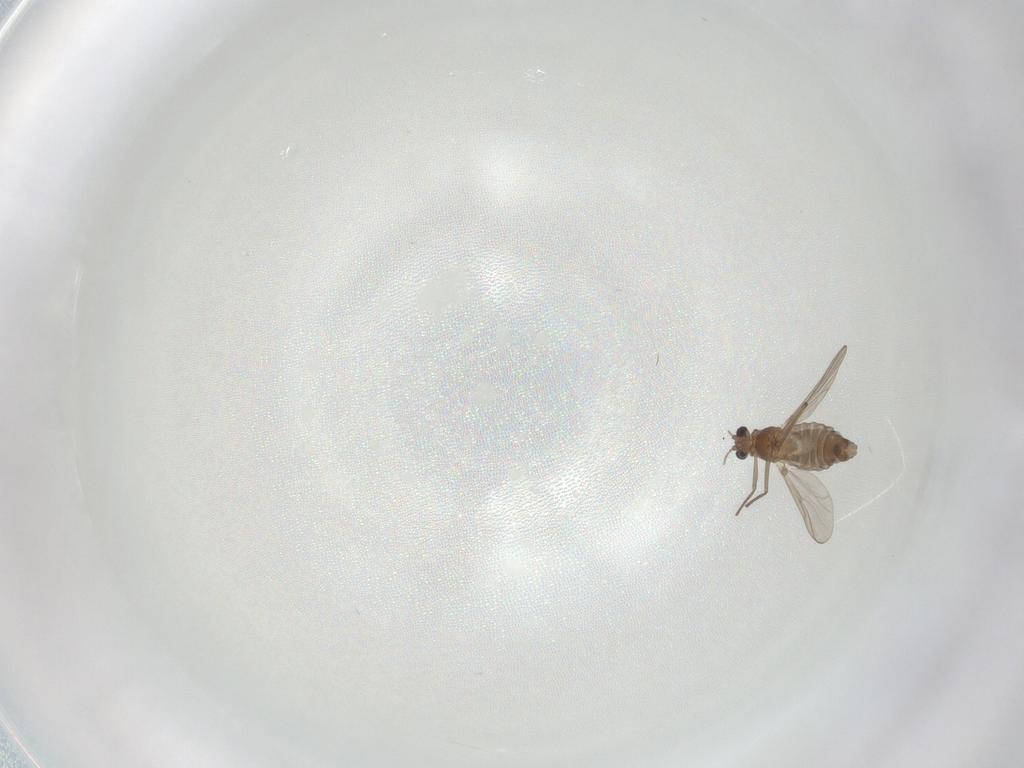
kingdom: Animalia
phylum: Arthropoda
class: Insecta
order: Diptera
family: Chironomidae
